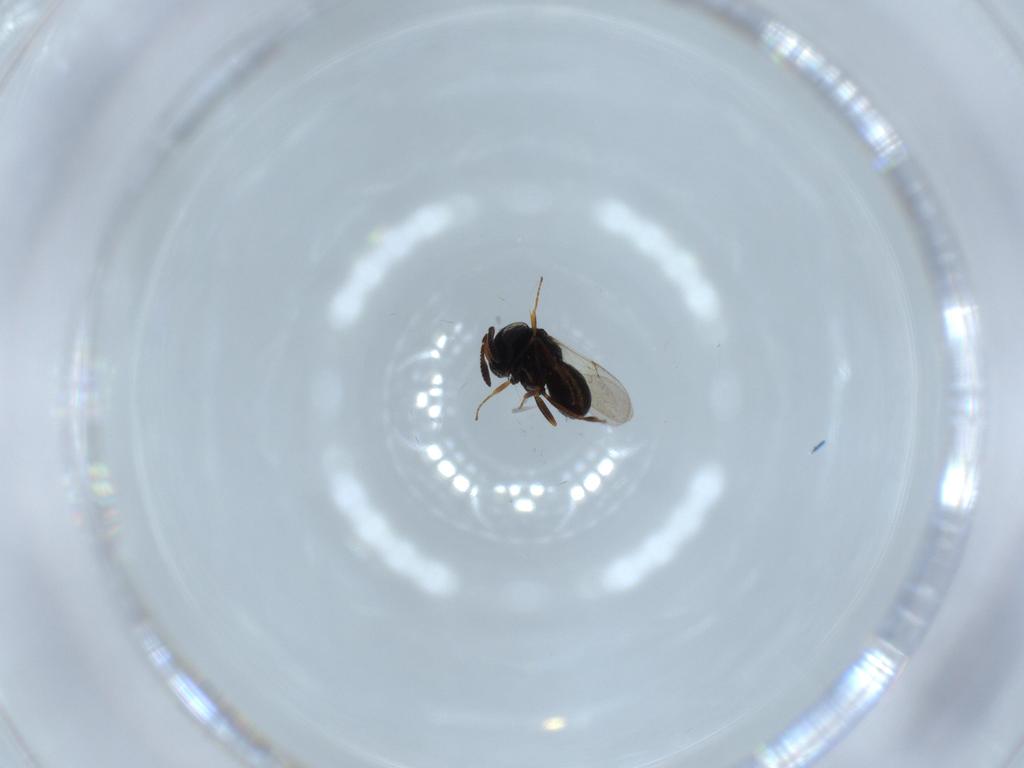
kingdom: Animalia
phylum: Arthropoda
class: Insecta
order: Hymenoptera
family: Scelionidae
